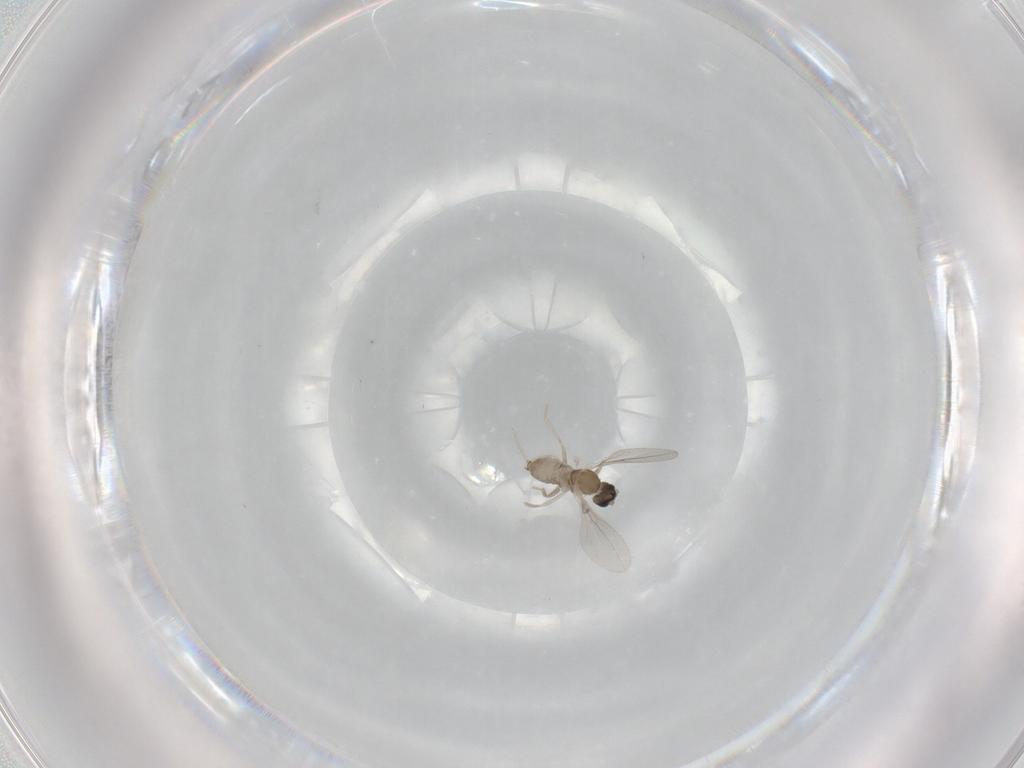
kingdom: Animalia
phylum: Arthropoda
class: Insecta
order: Diptera
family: Cecidomyiidae
